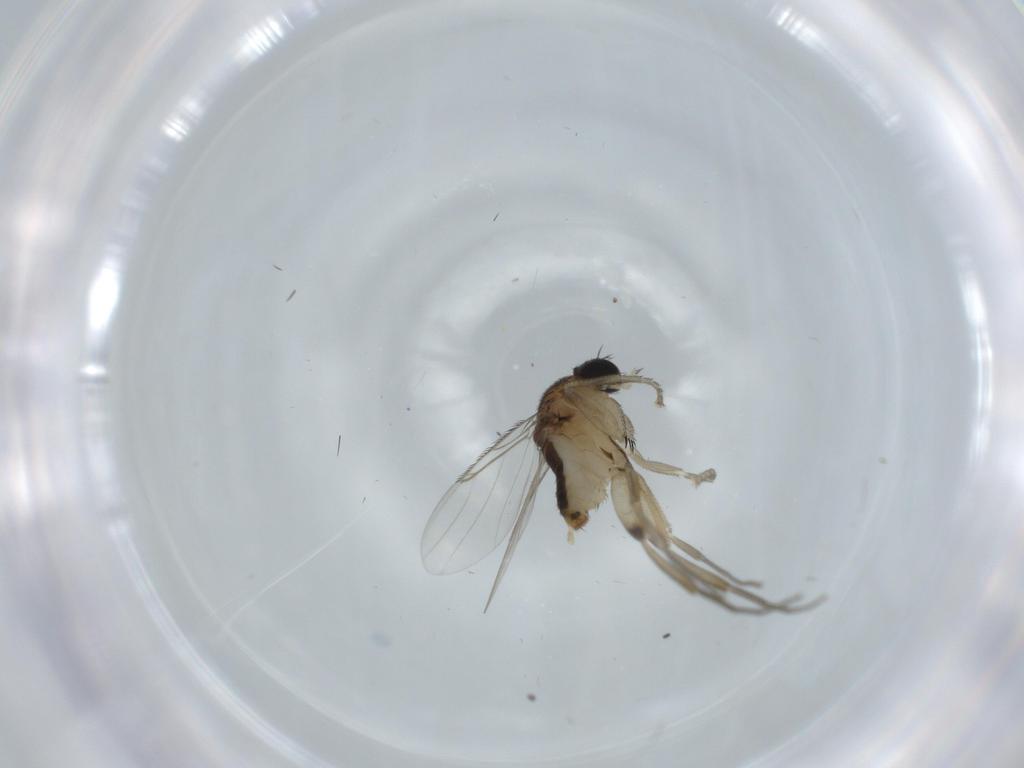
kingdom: Animalia
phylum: Arthropoda
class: Insecta
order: Diptera
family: Phoridae
